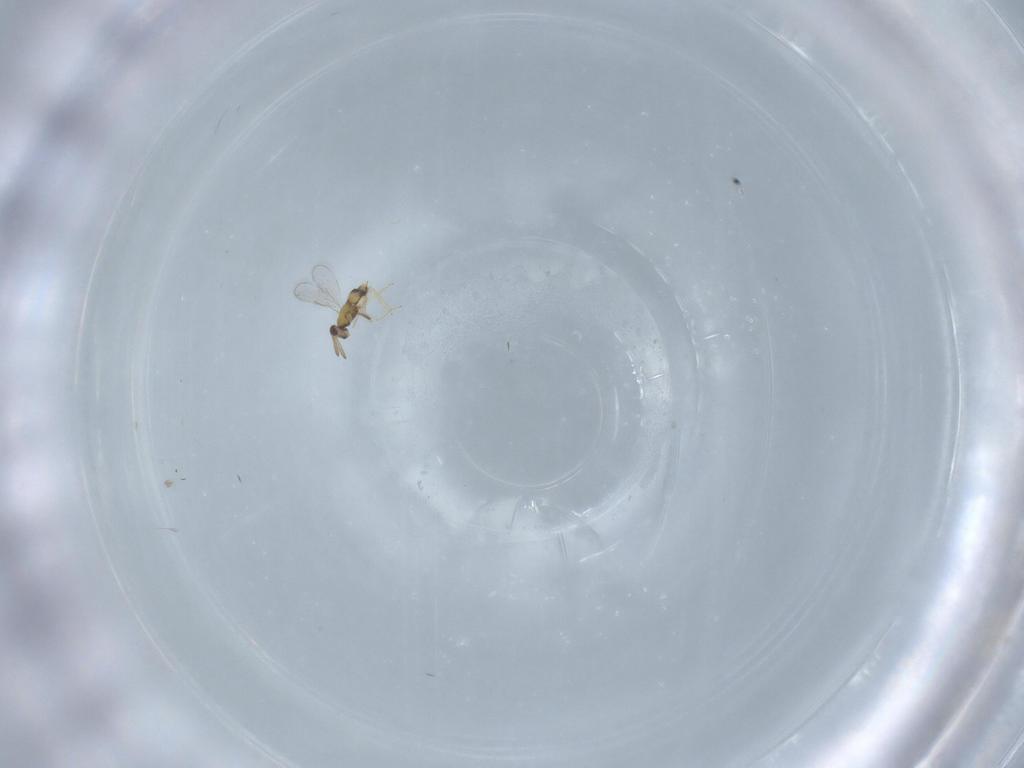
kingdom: Animalia
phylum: Arthropoda
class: Insecta
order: Hymenoptera
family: Aphelinidae
